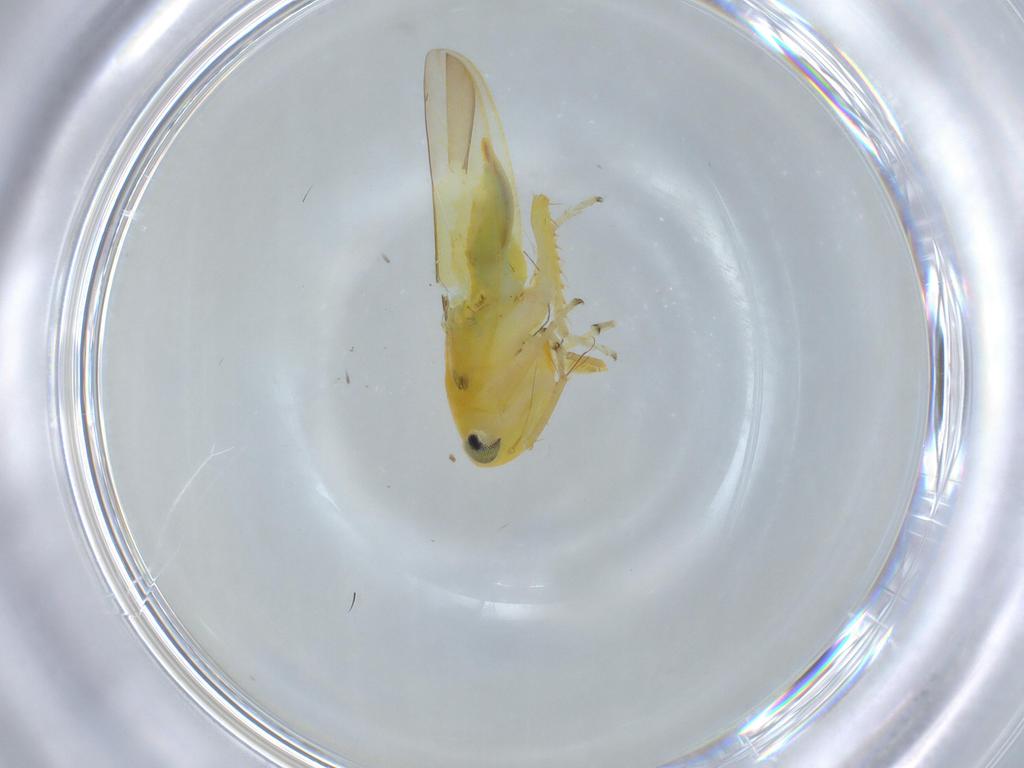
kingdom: Animalia
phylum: Arthropoda
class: Insecta
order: Hemiptera
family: Cicadellidae
